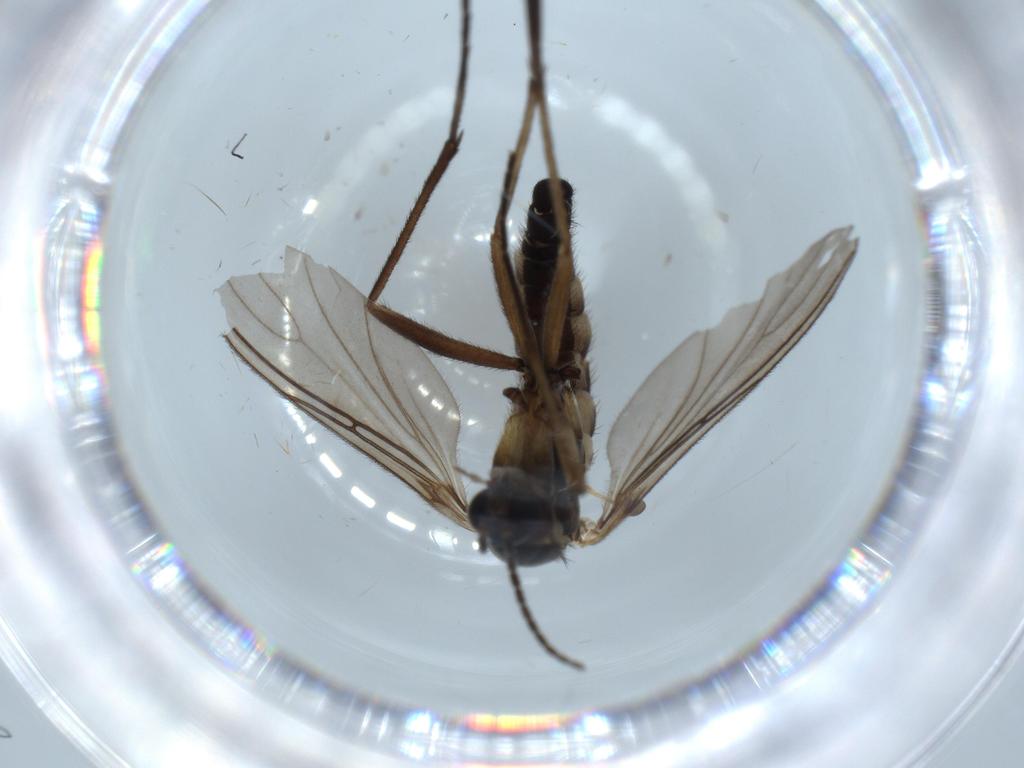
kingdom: Animalia
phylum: Arthropoda
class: Insecta
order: Diptera
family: Sciaridae
